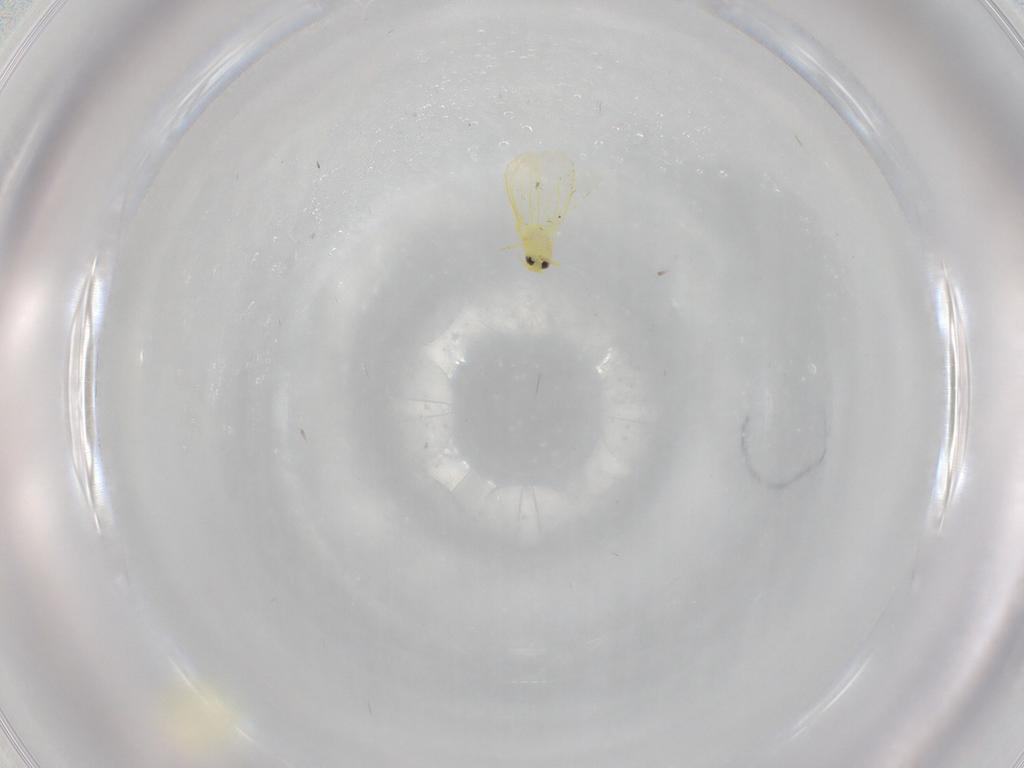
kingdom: Animalia
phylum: Arthropoda
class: Insecta
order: Hemiptera
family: Aleyrodidae
